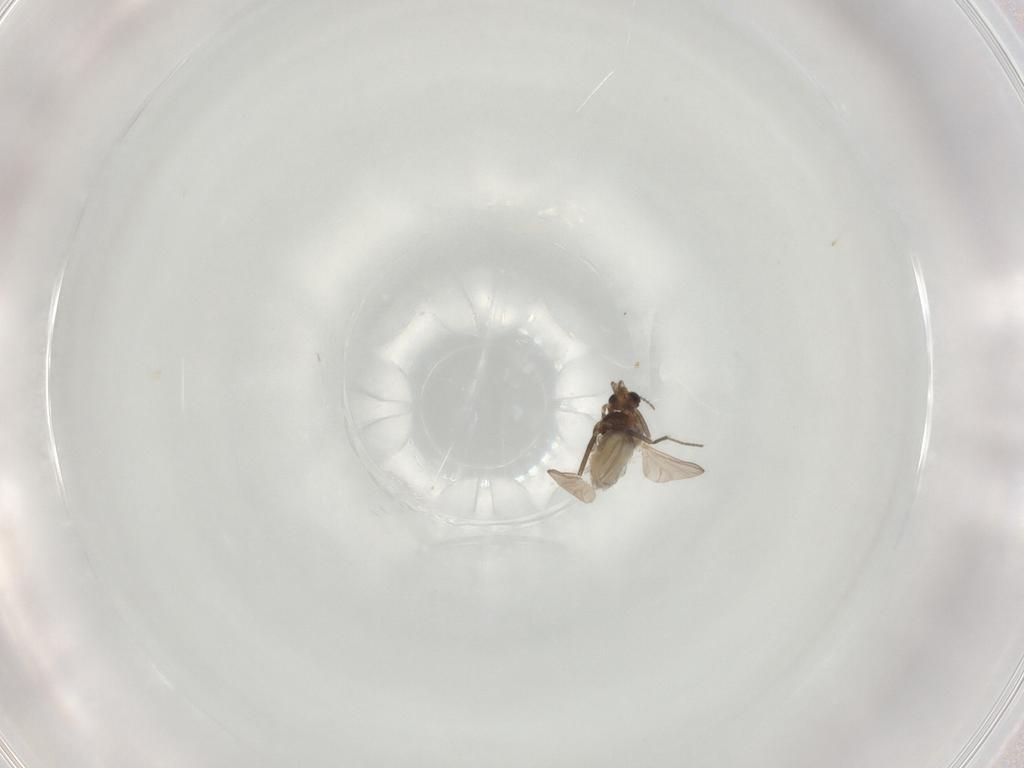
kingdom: Animalia
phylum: Arthropoda
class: Insecta
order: Diptera
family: Muscidae
